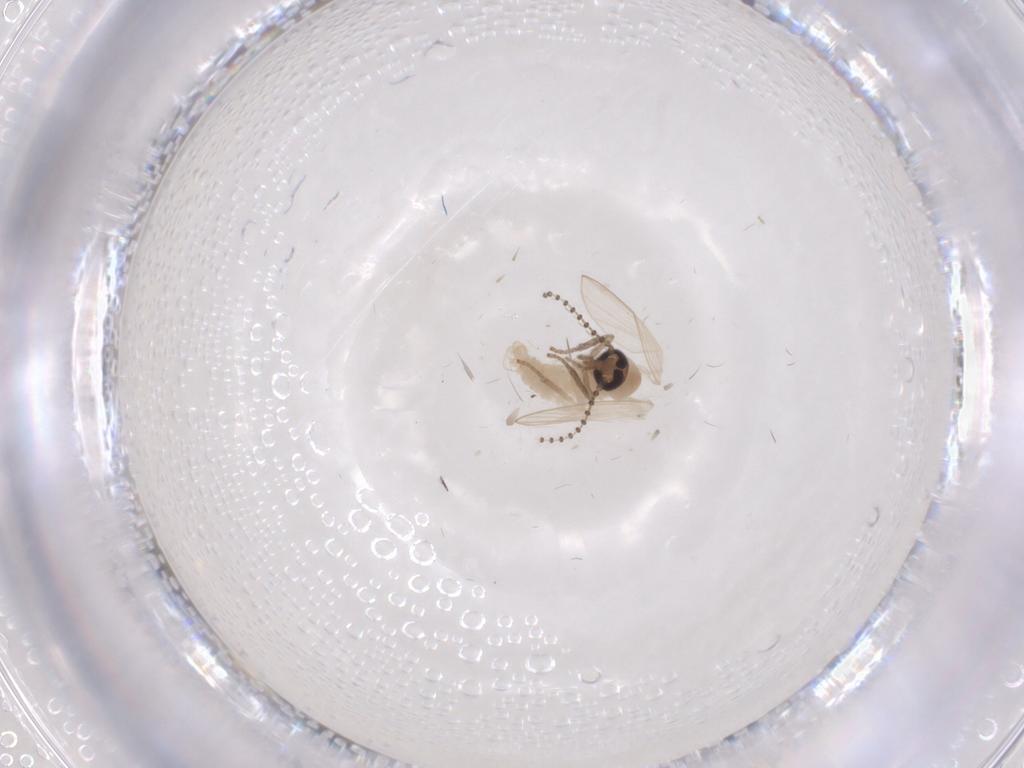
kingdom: Animalia
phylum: Arthropoda
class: Insecta
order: Diptera
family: Psychodidae
